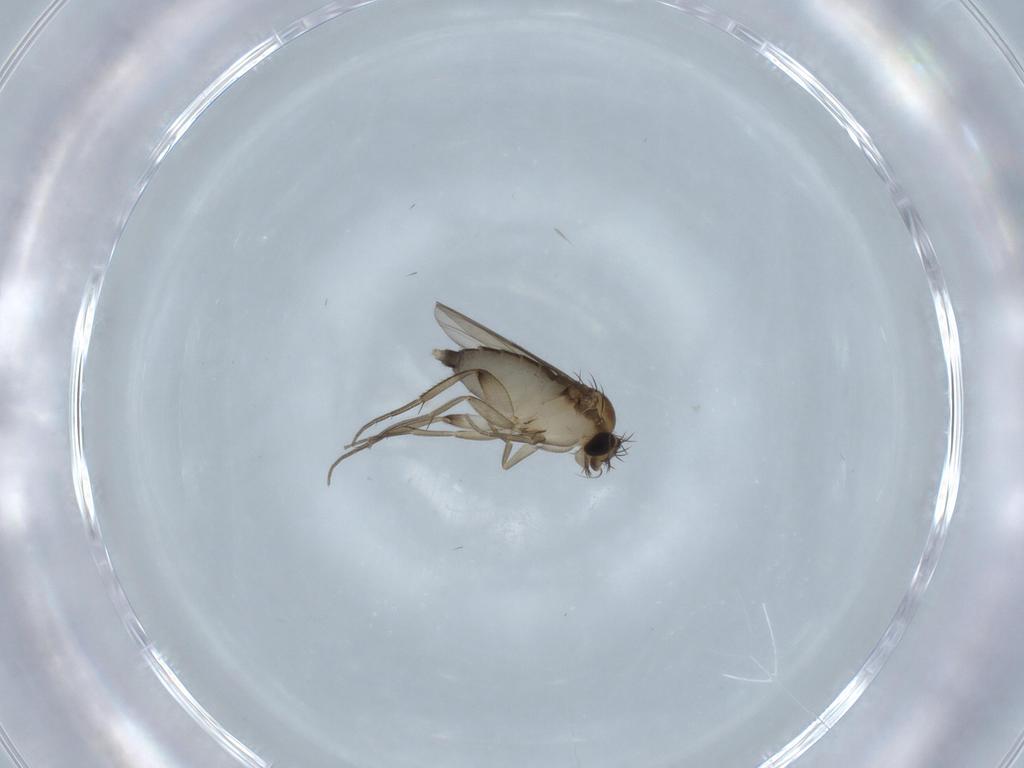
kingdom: Animalia
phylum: Arthropoda
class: Insecta
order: Diptera
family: Phoridae
